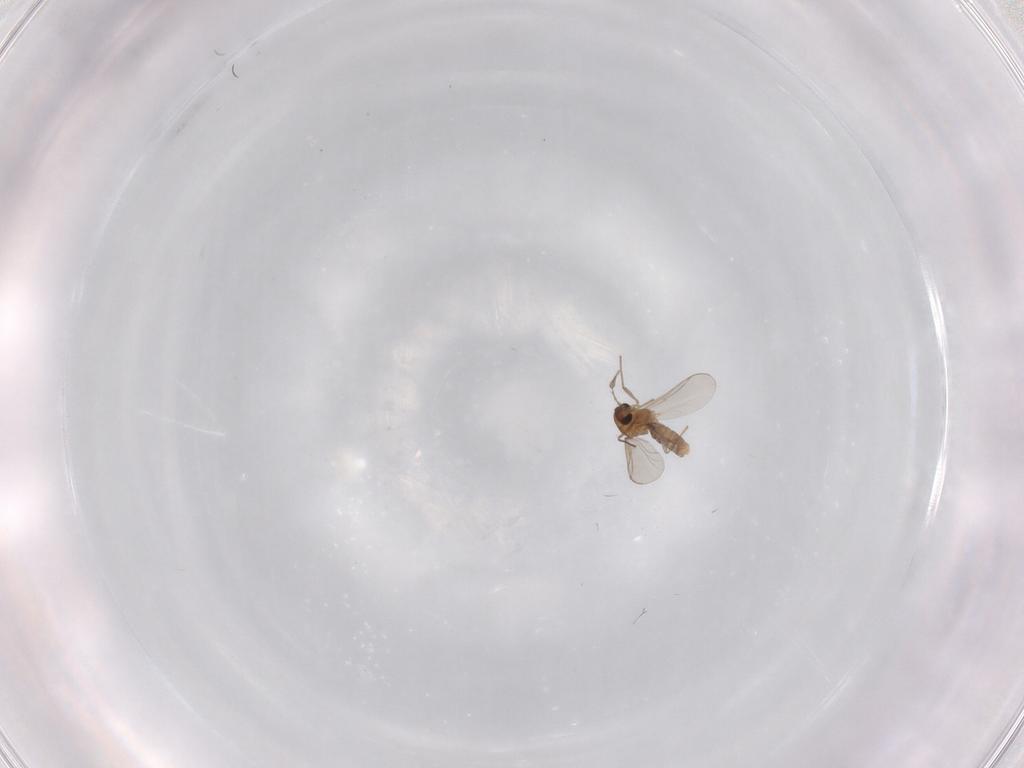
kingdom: Animalia
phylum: Arthropoda
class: Insecta
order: Diptera
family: Chironomidae
